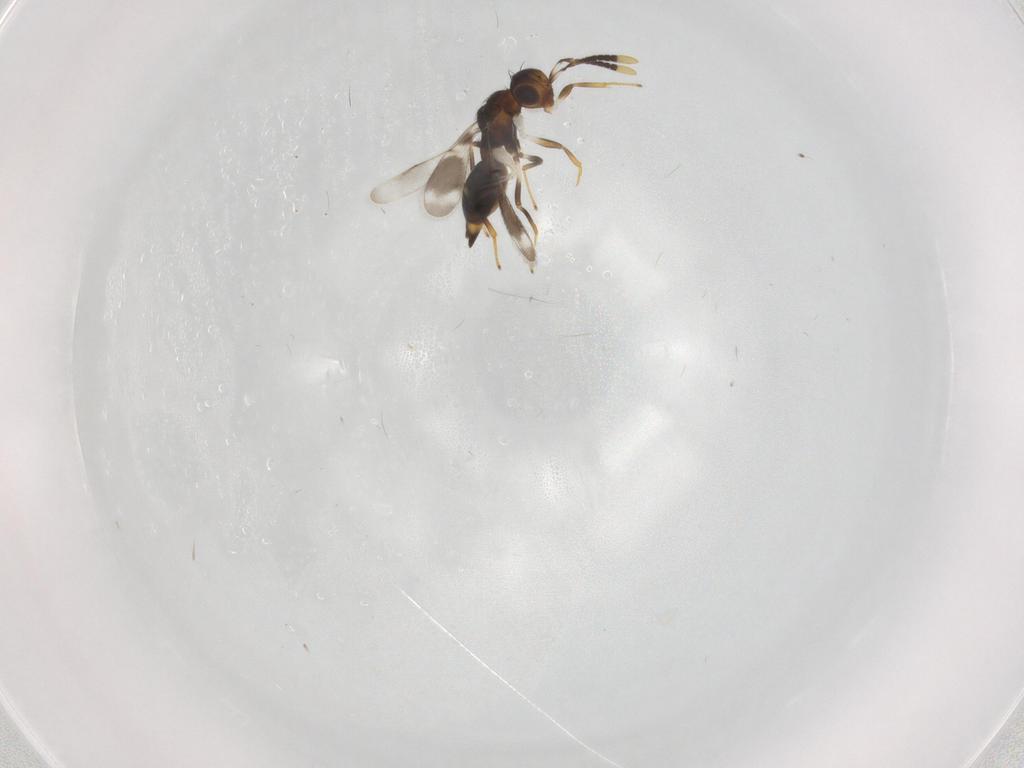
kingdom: Animalia
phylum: Arthropoda
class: Insecta
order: Hymenoptera
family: Diparidae
